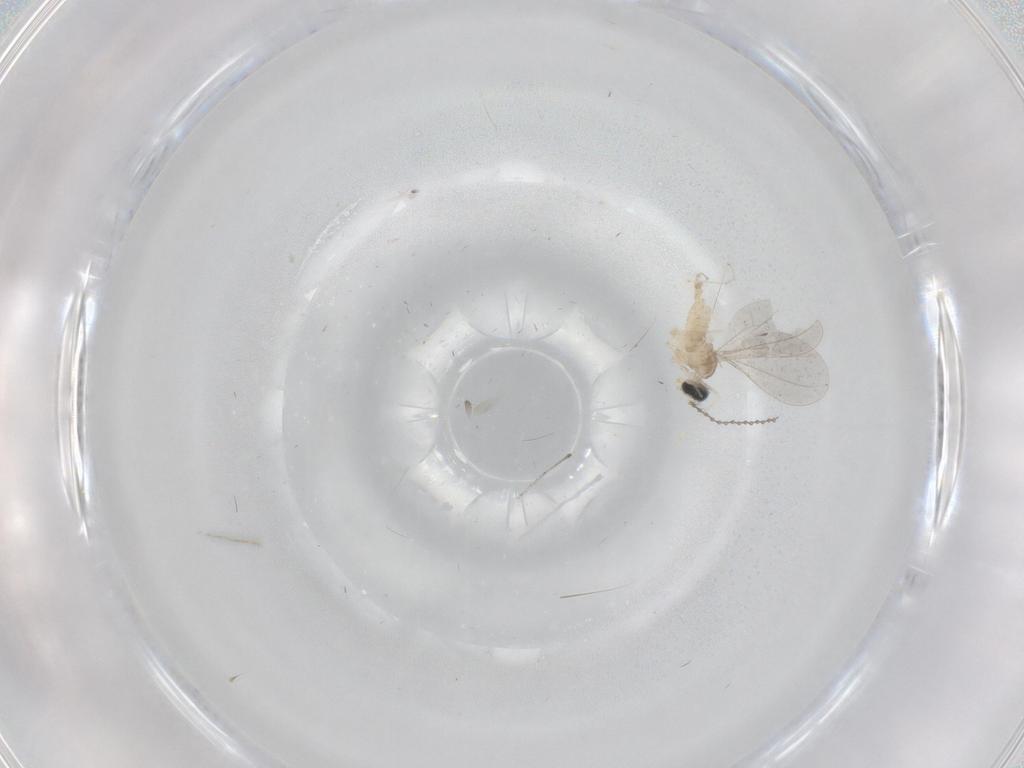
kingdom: Animalia
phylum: Arthropoda
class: Insecta
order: Diptera
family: Cecidomyiidae
